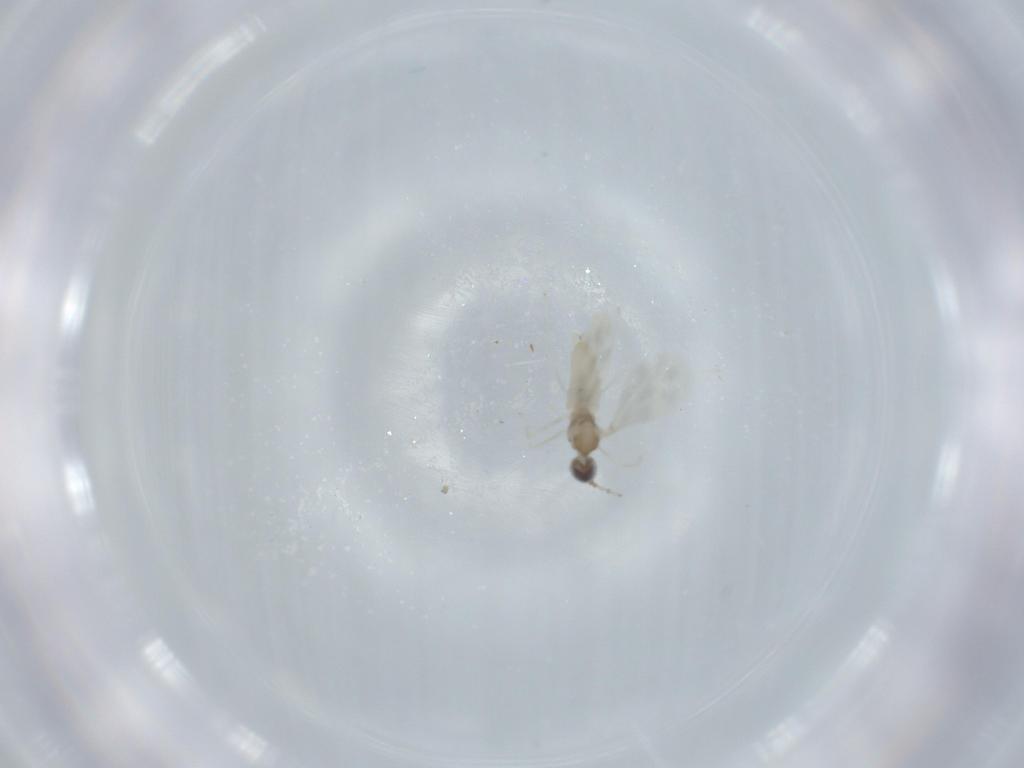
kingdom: Animalia
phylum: Arthropoda
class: Insecta
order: Diptera
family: Cecidomyiidae
